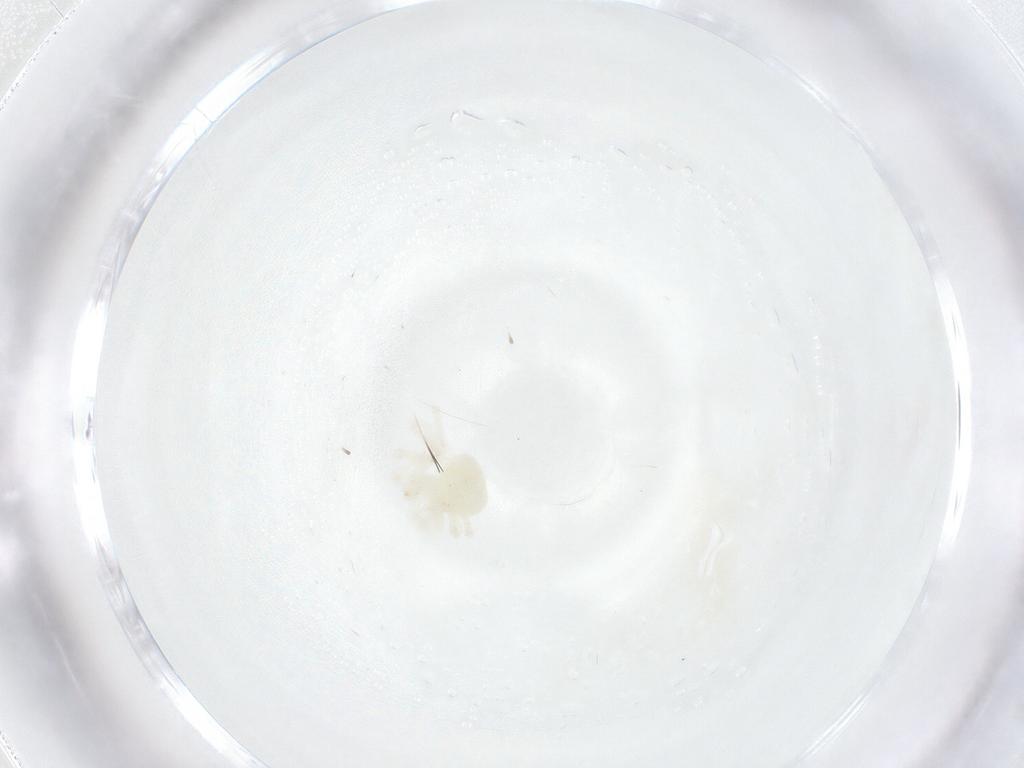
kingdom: Animalia
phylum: Arthropoda
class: Arachnida
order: Trombidiformes
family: Anystidae
